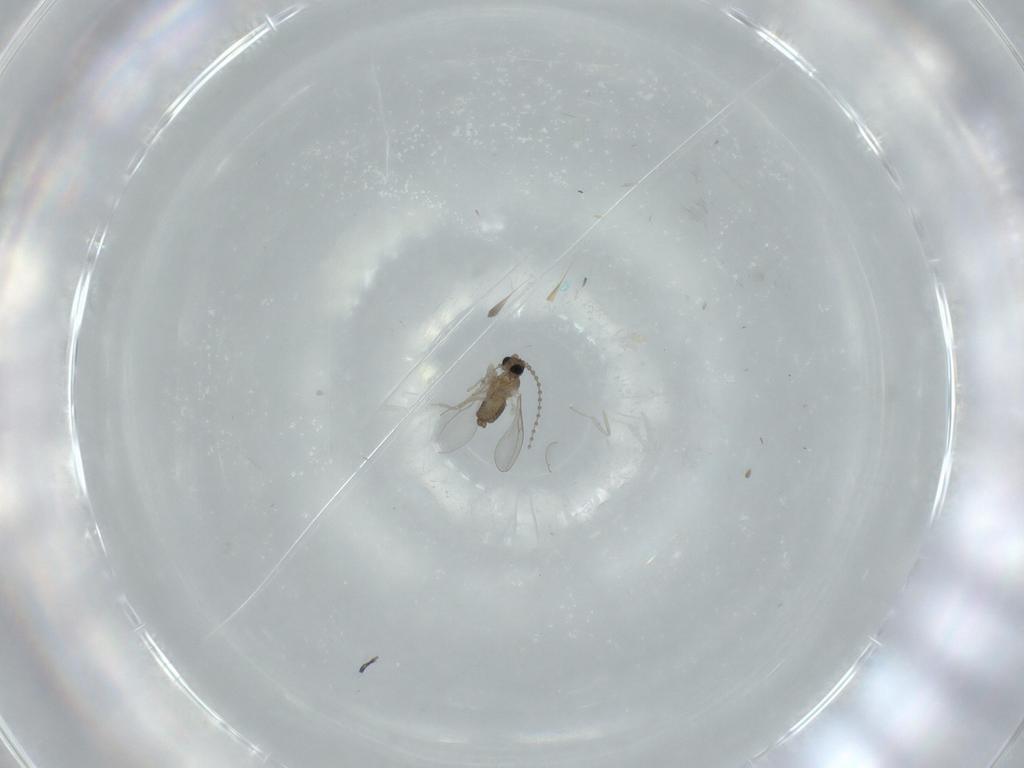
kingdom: Animalia
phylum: Arthropoda
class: Insecta
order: Diptera
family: Cecidomyiidae
